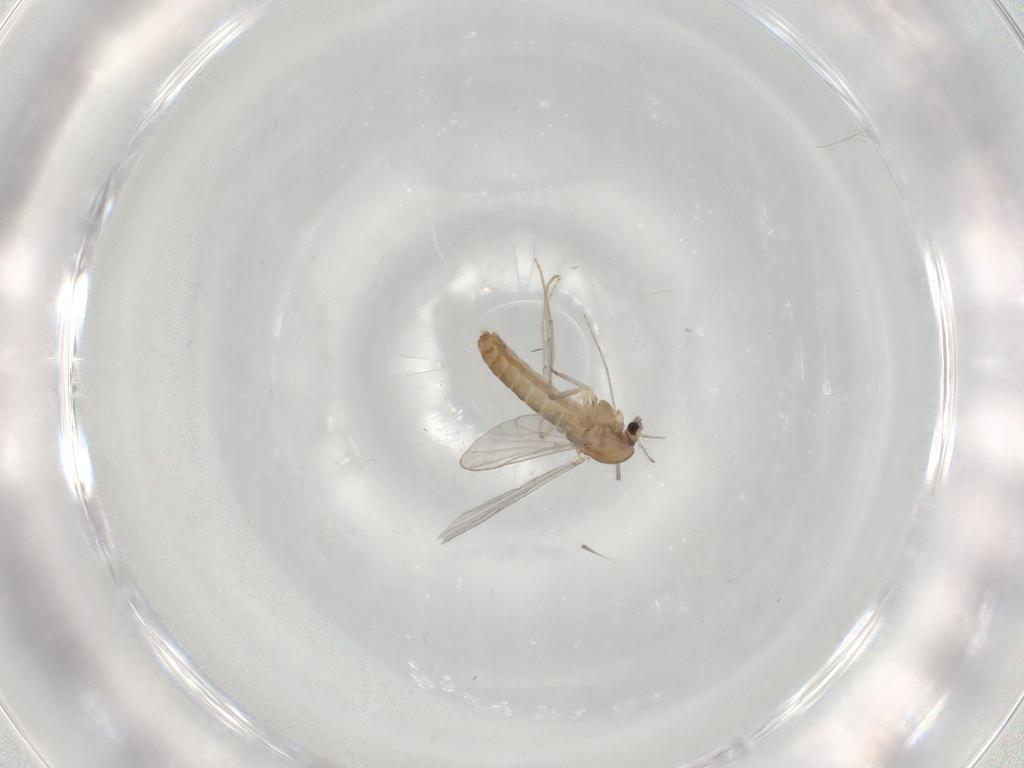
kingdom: Animalia
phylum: Arthropoda
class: Insecta
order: Diptera
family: Chironomidae
